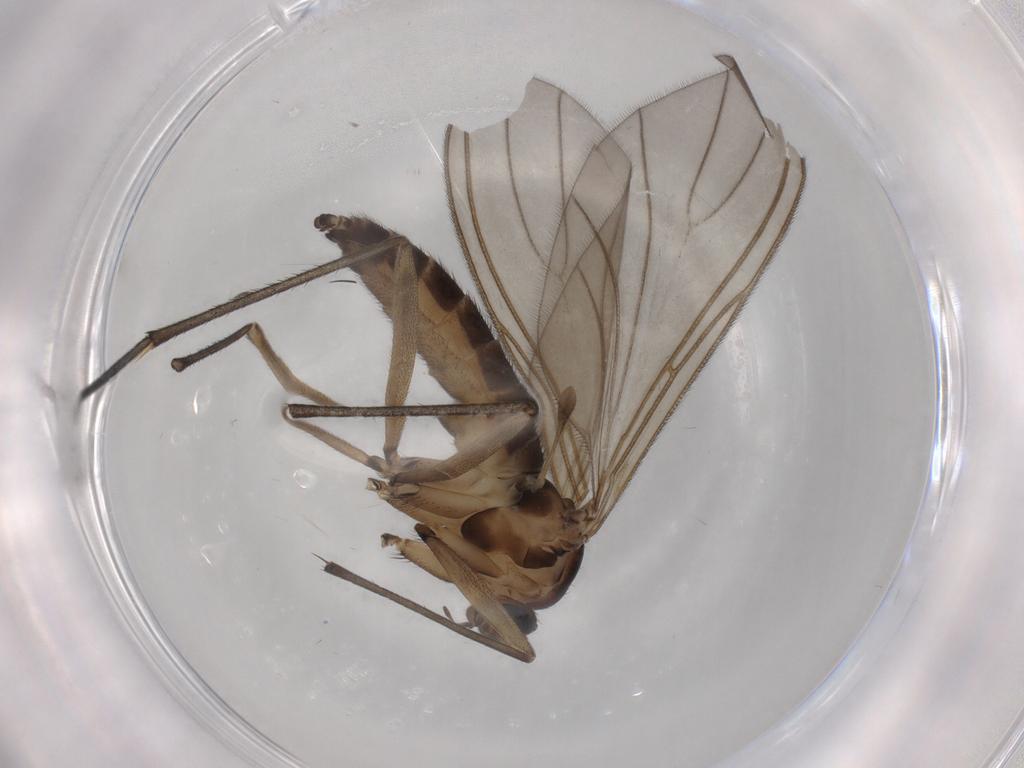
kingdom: Animalia
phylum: Arthropoda
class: Insecta
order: Diptera
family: Sciaridae
